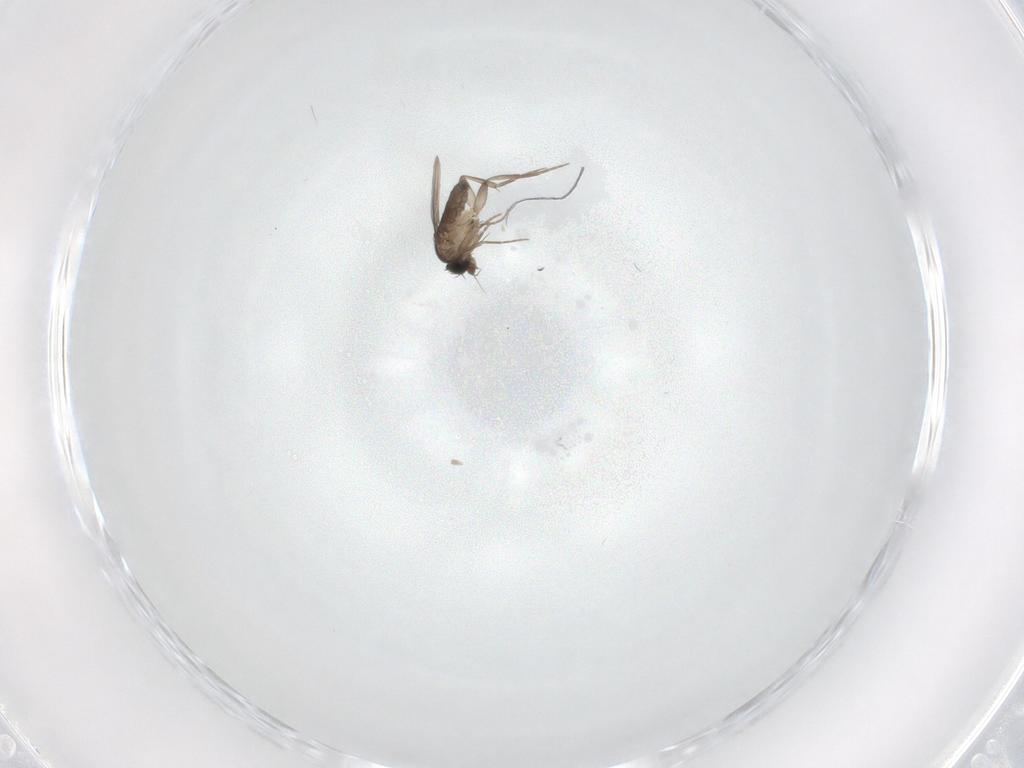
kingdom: Animalia
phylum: Arthropoda
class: Insecta
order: Diptera
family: Phoridae
